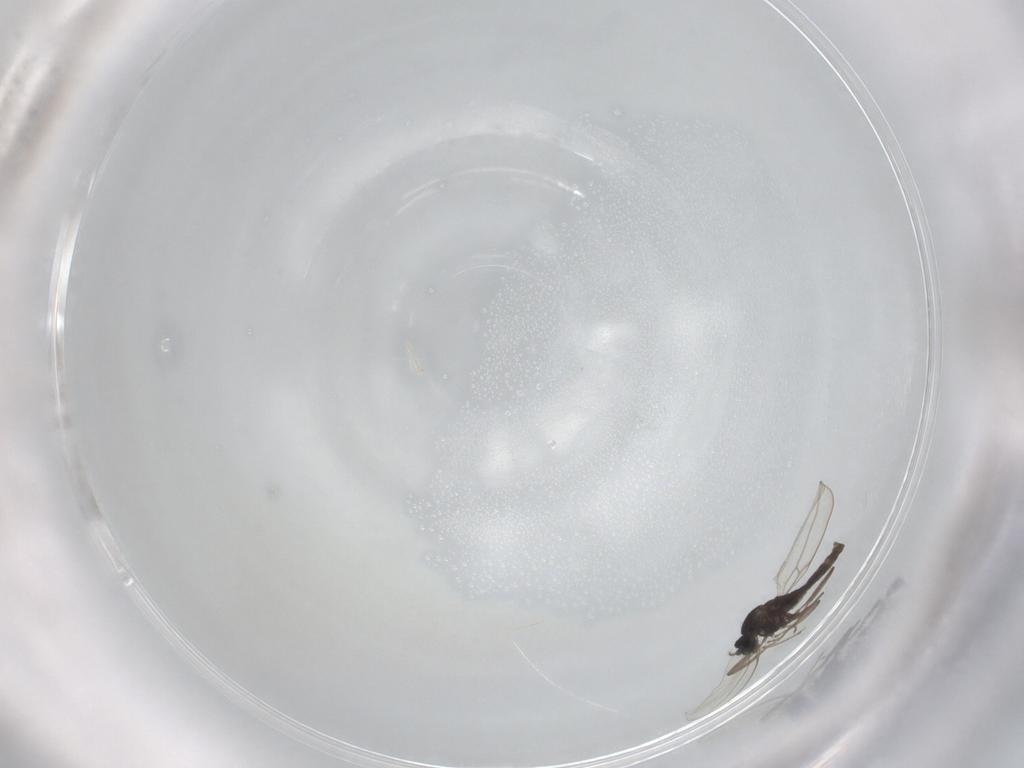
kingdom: Animalia
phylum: Arthropoda
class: Insecta
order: Diptera
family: Cecidomyiidae
